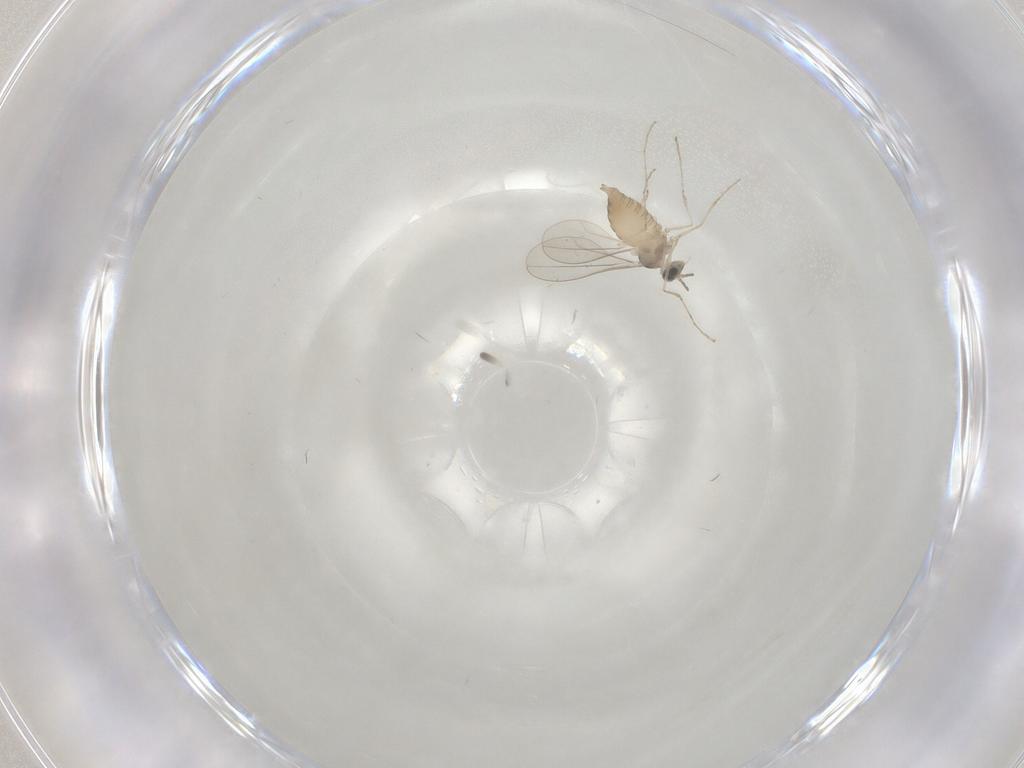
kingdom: Animalia
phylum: Arthropoda
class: Insecta
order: Diptera
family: Cecidomyiidae
